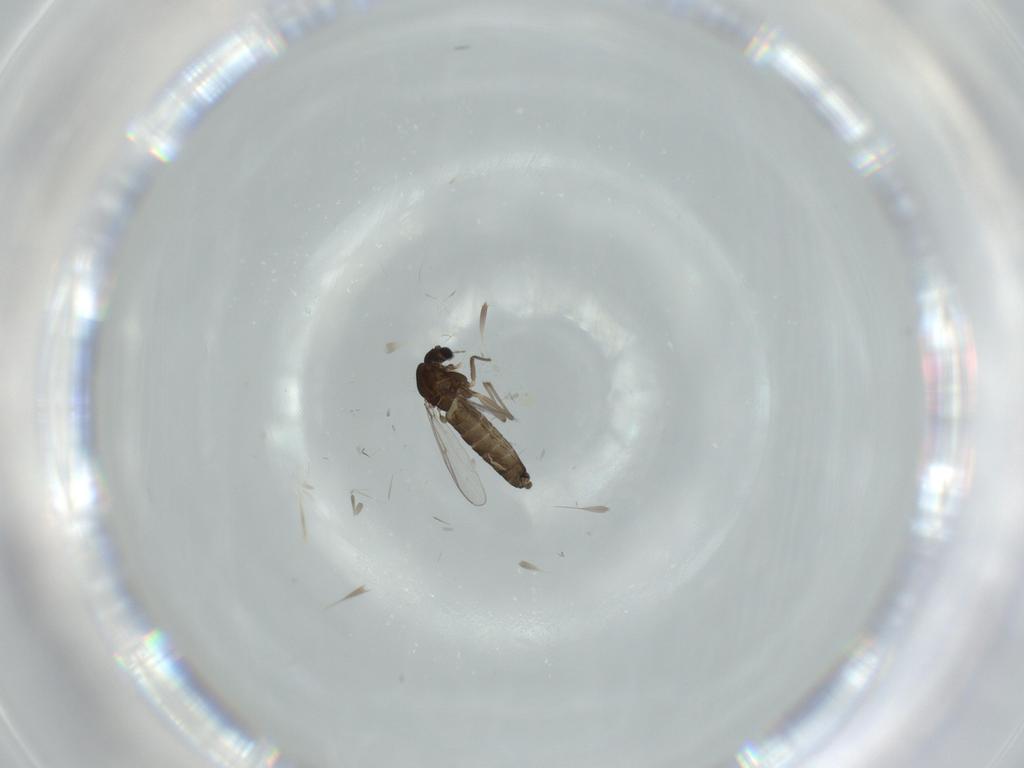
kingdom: Animalia
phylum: Arthropoda
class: Insecta
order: Diptera
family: Chironomidae
